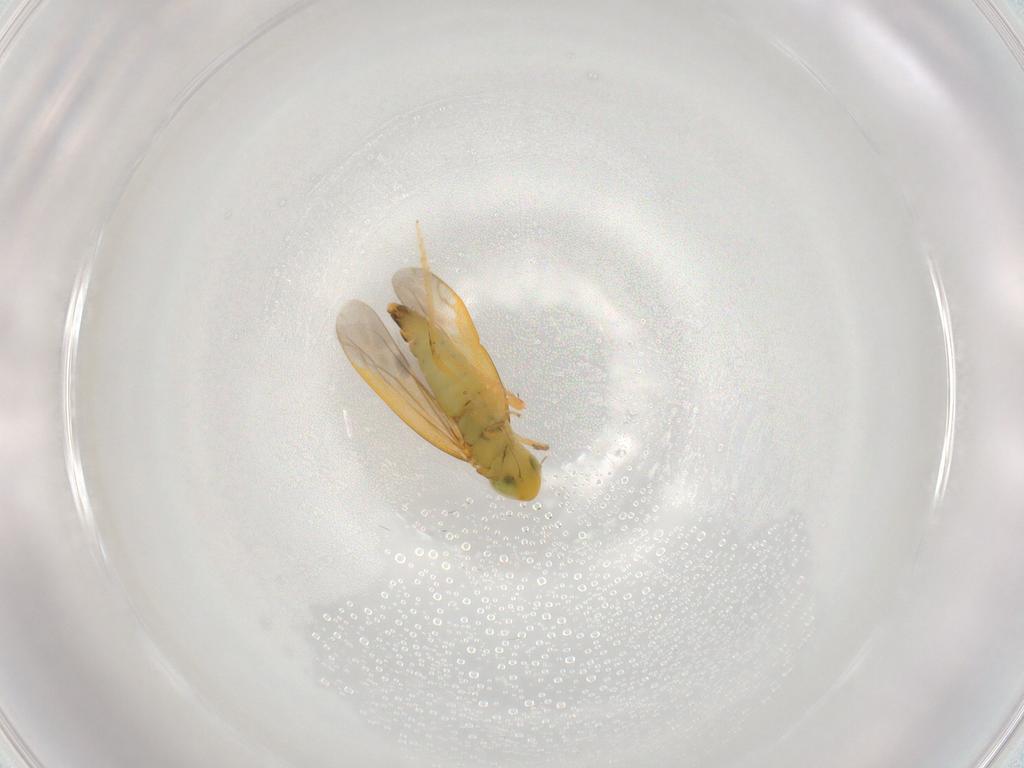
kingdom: Animalia
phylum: Arthropoda
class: Insecta
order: Hemiptera
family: Cicadellidae
